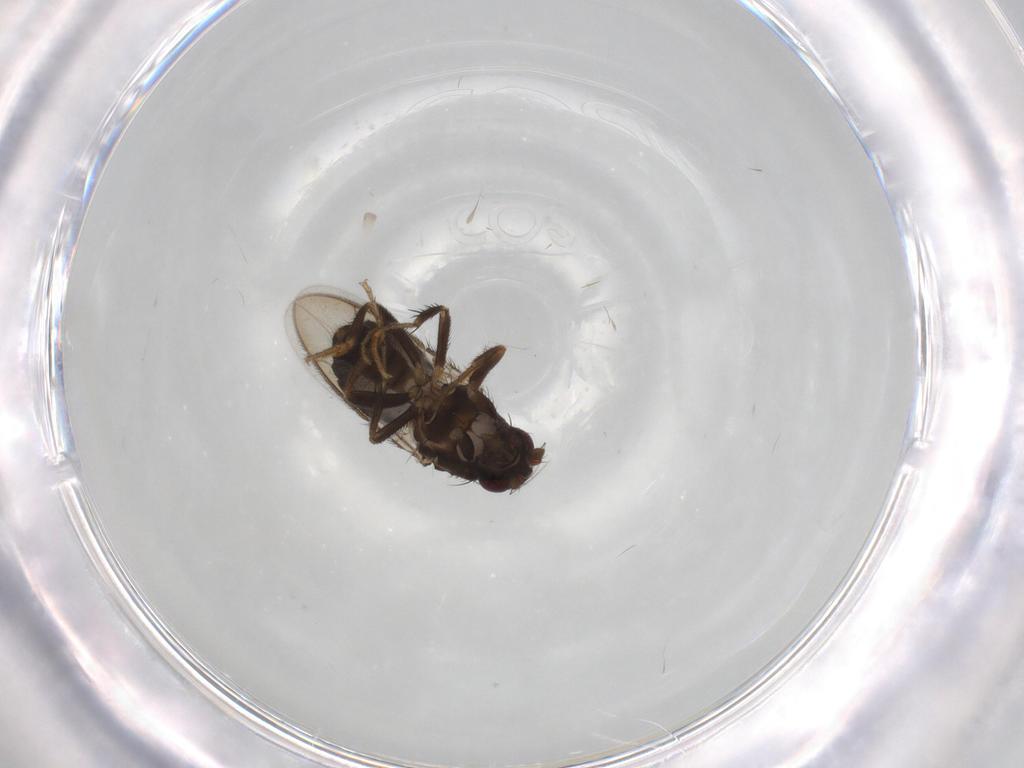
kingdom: Animalia
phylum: Arthropoda
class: Insecta
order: Diptera
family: Sphaeroceridae
